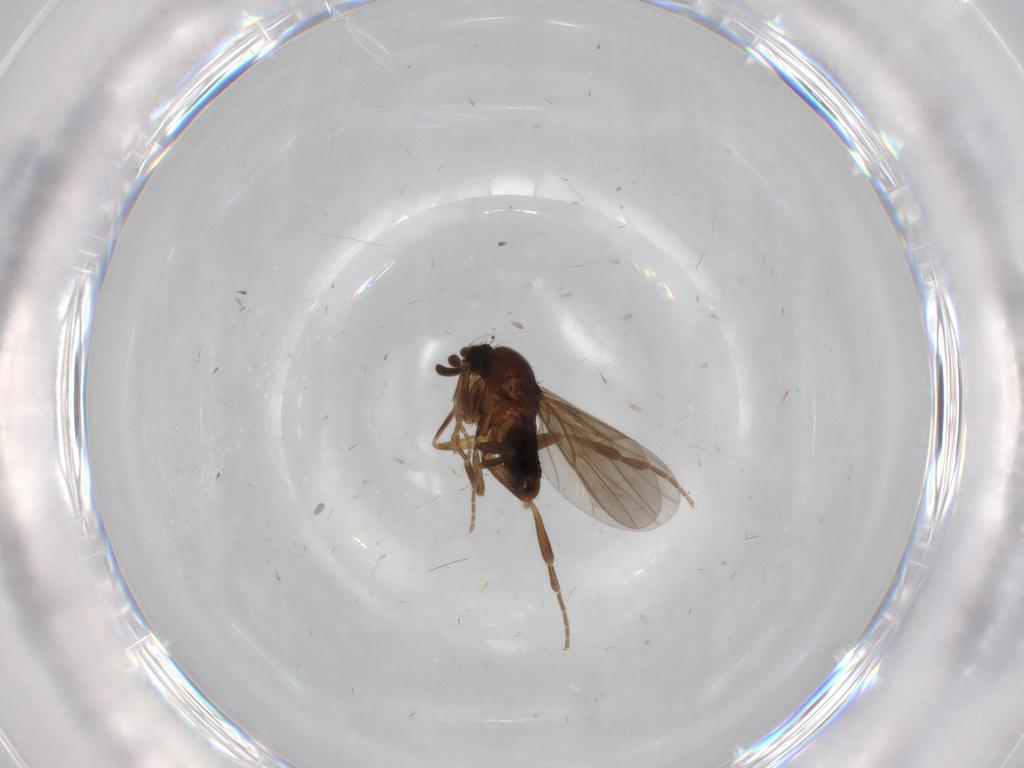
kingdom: Animalia
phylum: Arthropoda
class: Insecta
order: Diptera
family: Phoridae
